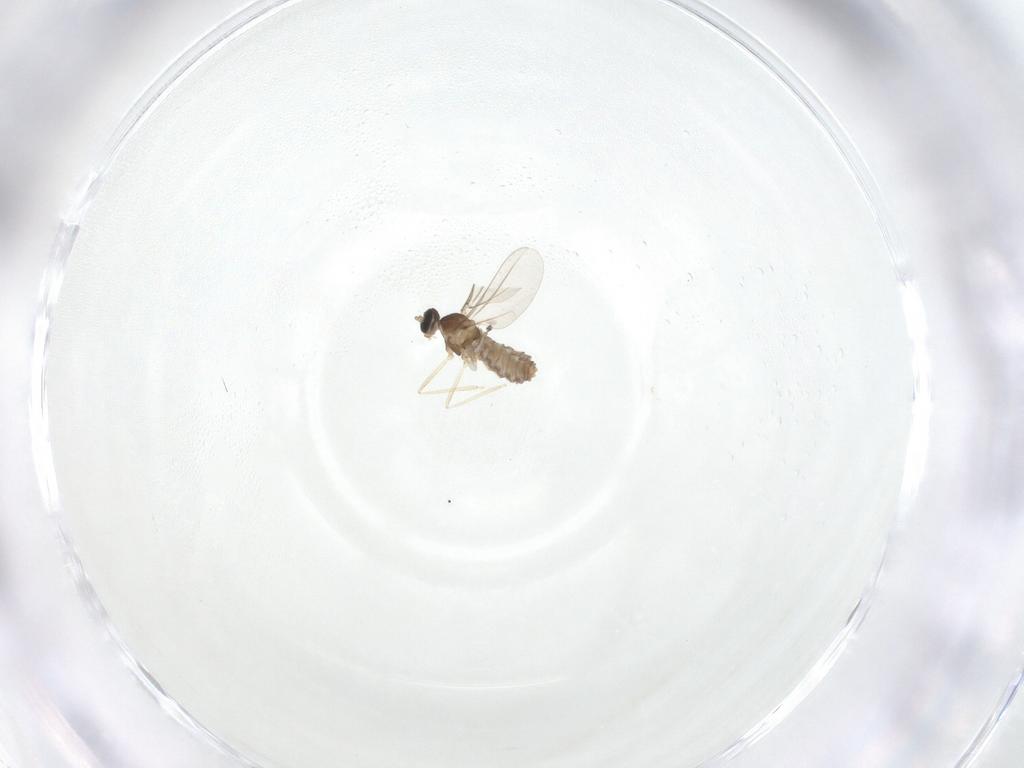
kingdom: Animalia
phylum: Arthropoda
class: Insecta
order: Diptera
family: Cecidomyiidae
